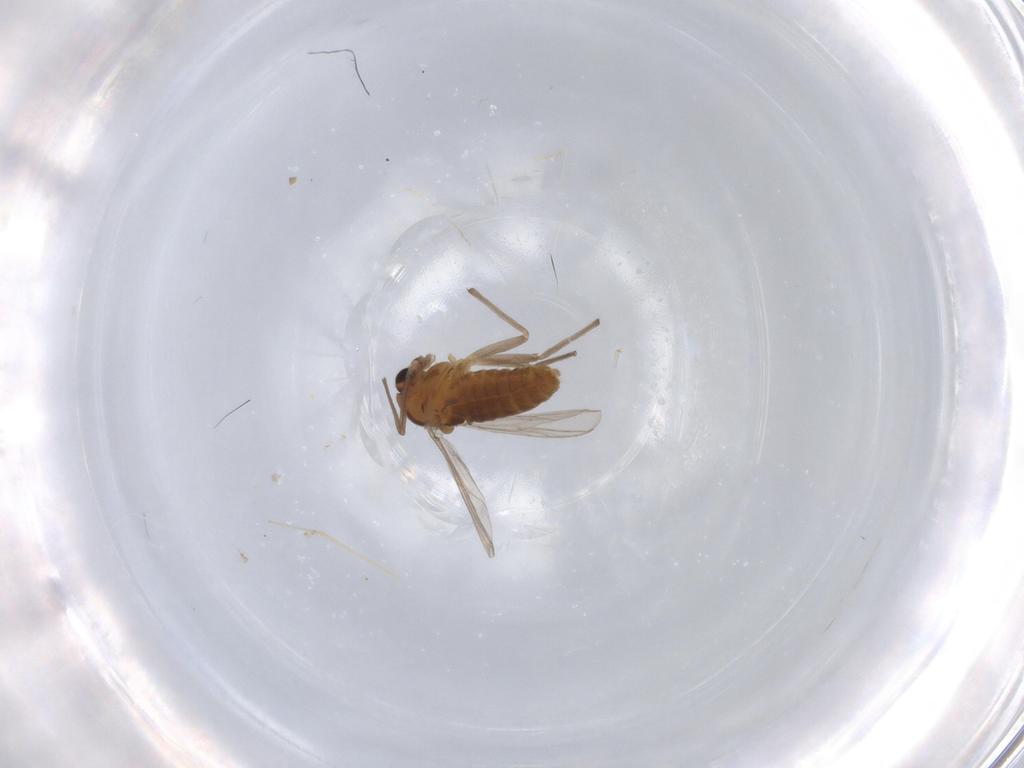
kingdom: Animalia
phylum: Arthropoda
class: Insecta
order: Diptera
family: Chironomidae
